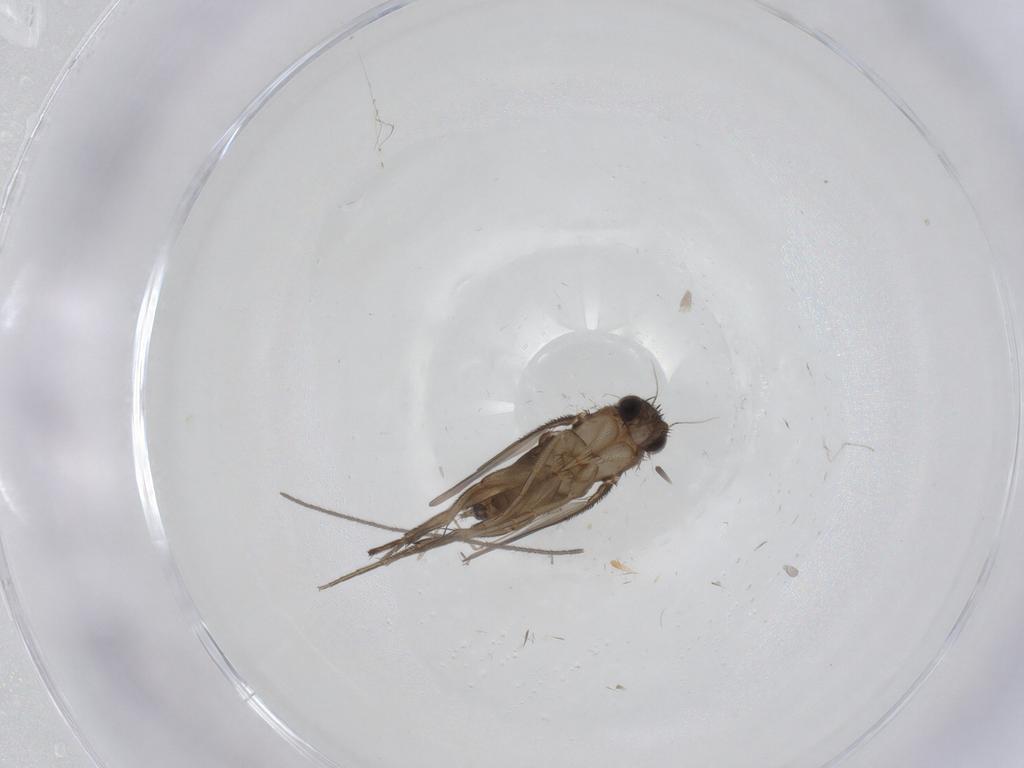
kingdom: Animalia
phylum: Arthropoda
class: Insecta
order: Diptera
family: Phoridae
